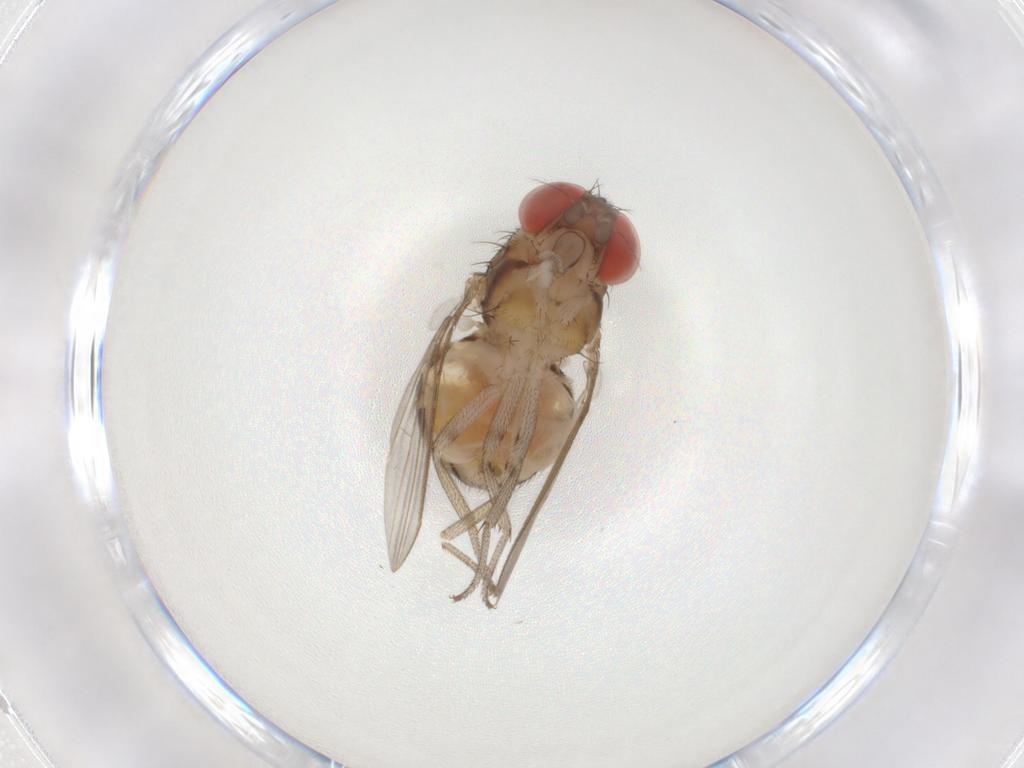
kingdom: Animalia
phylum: Arthropoda
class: Insecta
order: Diptera
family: Drosophilidae
